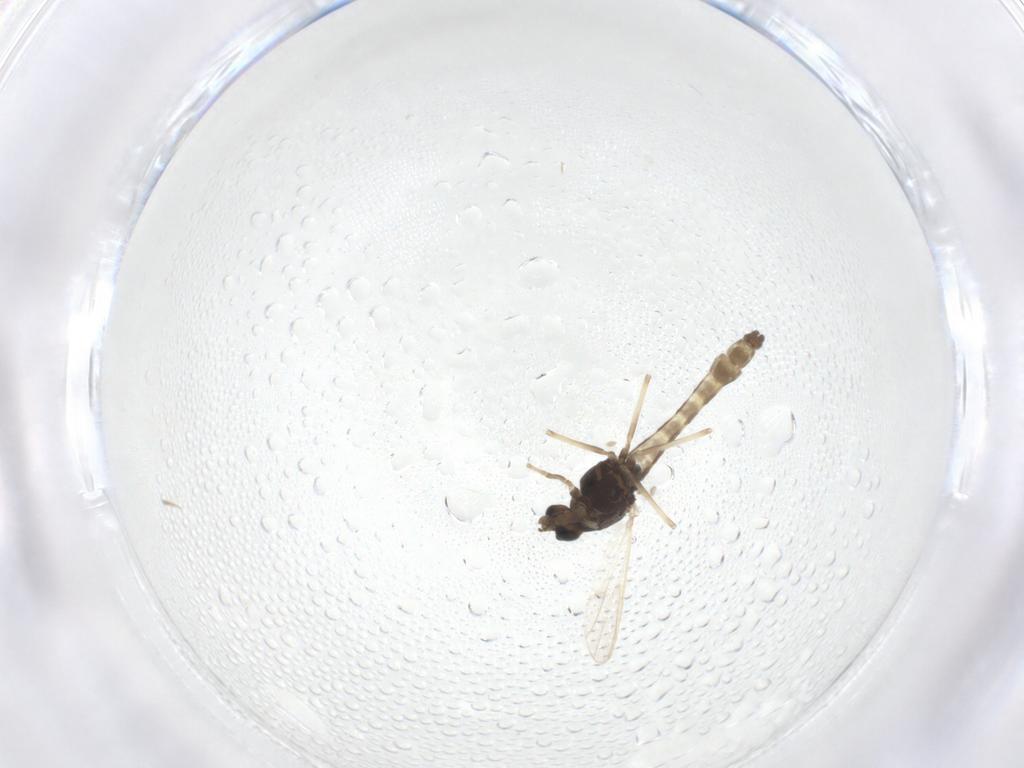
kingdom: Animalia
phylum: Arthropoda
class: Insecta
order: Diptera
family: Chironomidae
